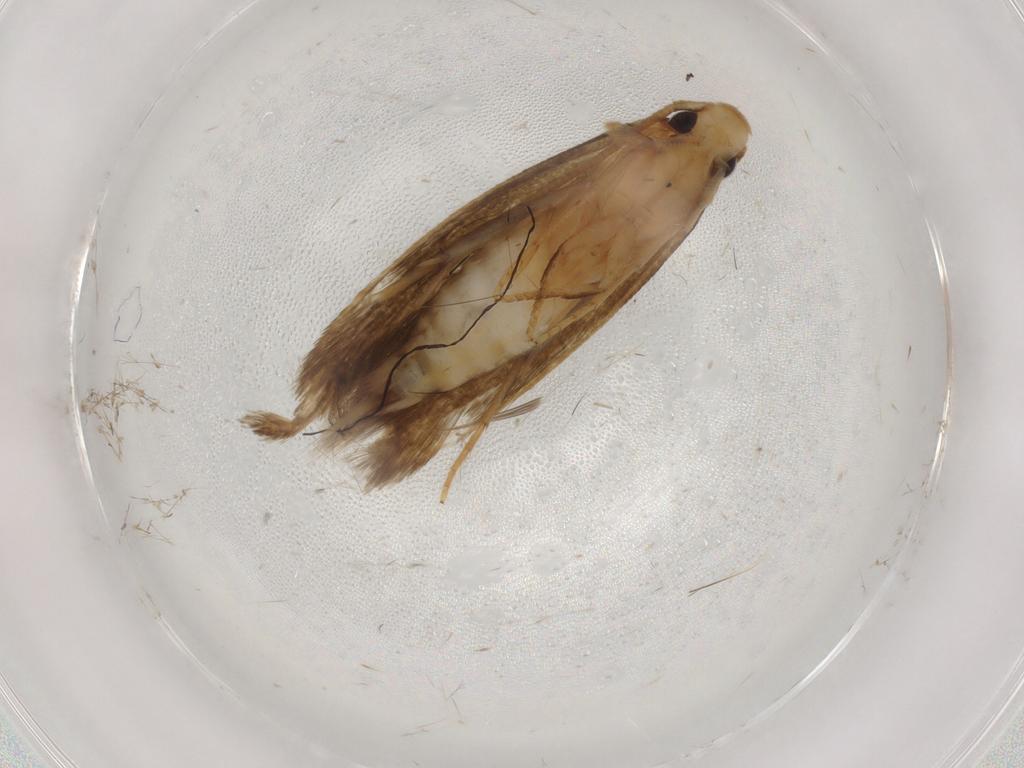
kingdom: Animalia
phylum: Arthropoda
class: Insecta
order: Lepidoptera
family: Tineidae
